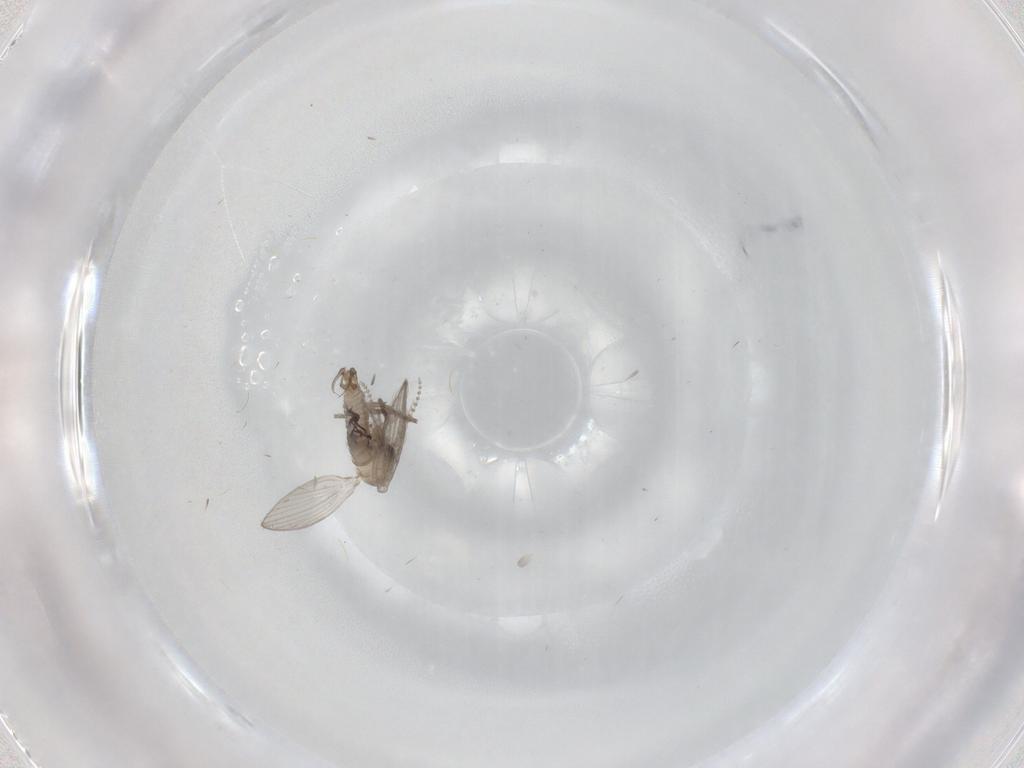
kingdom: Animalia
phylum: Arthropoda
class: Insecta
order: Diptera
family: Psychodidae
